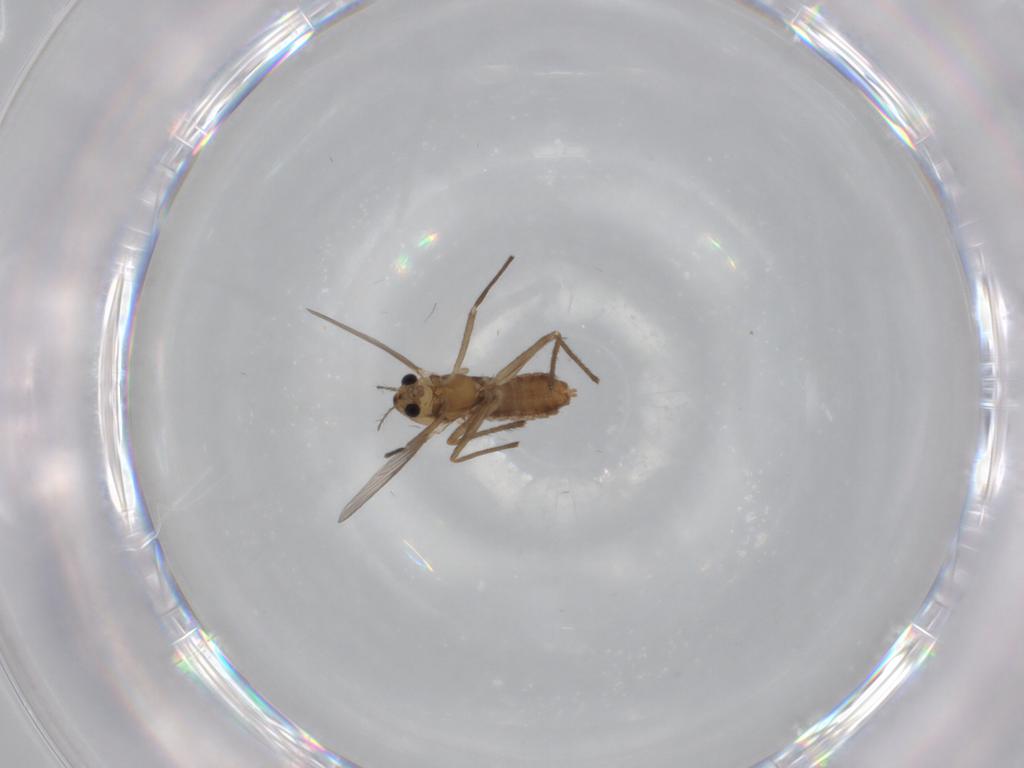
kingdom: Animalia
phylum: Arthropoda
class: Insecta
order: Diptera
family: Chironomidae
